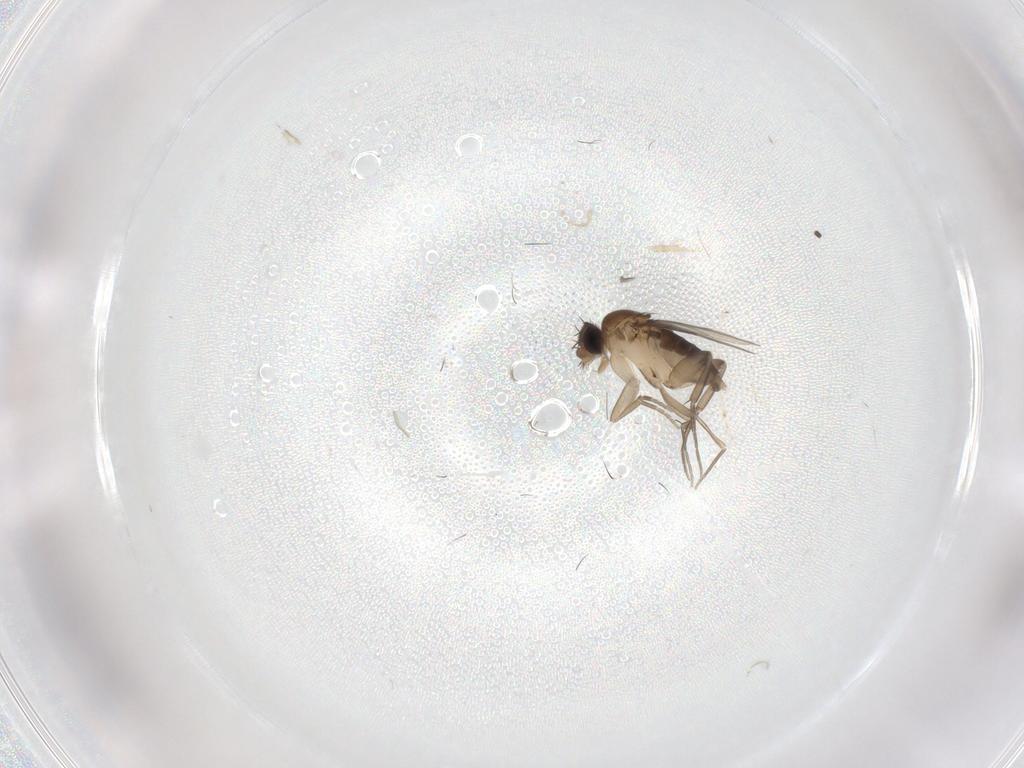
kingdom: Animalia
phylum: Arthropoda
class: Insecta
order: Diptera
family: Phoridae
